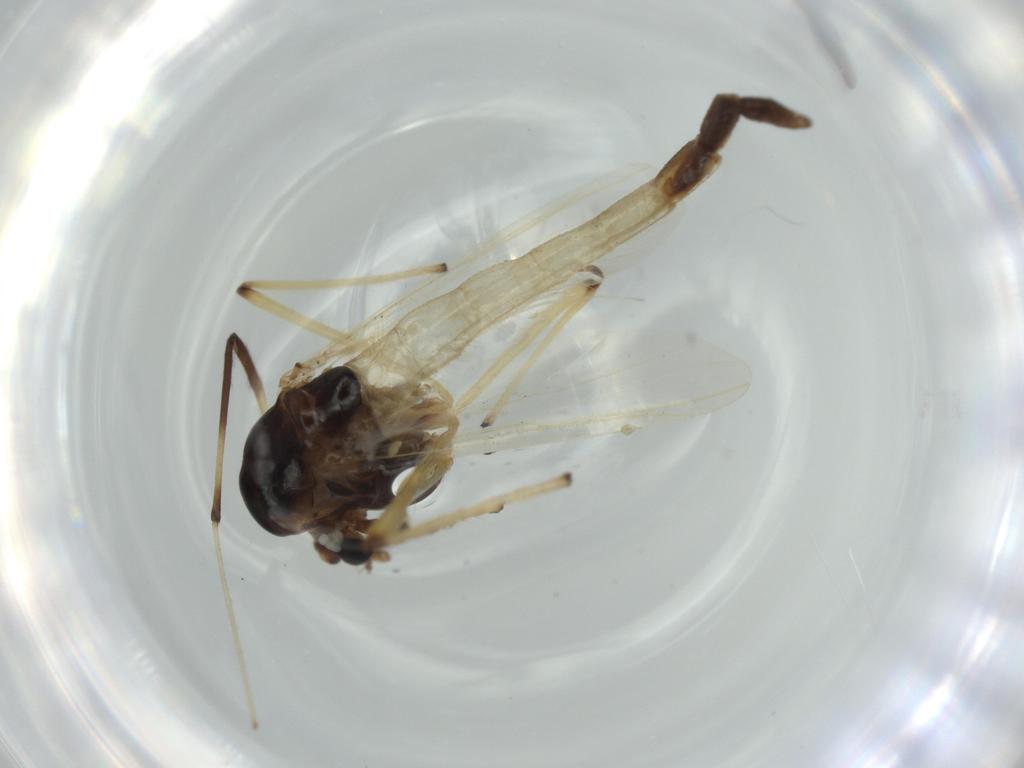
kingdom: Animalia
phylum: Arthropoda
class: Insecta
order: Diptera
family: Chironomidae
